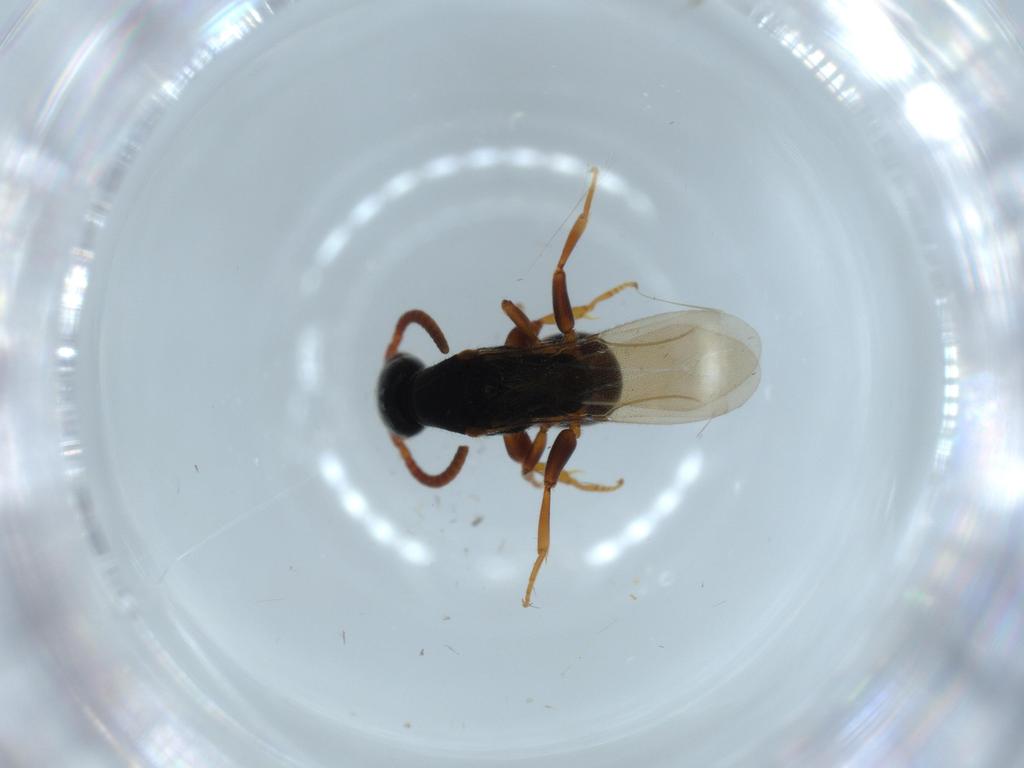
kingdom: Animalia
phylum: Arthropoda
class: Insecta
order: Hymenoptera
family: Bethylidae
